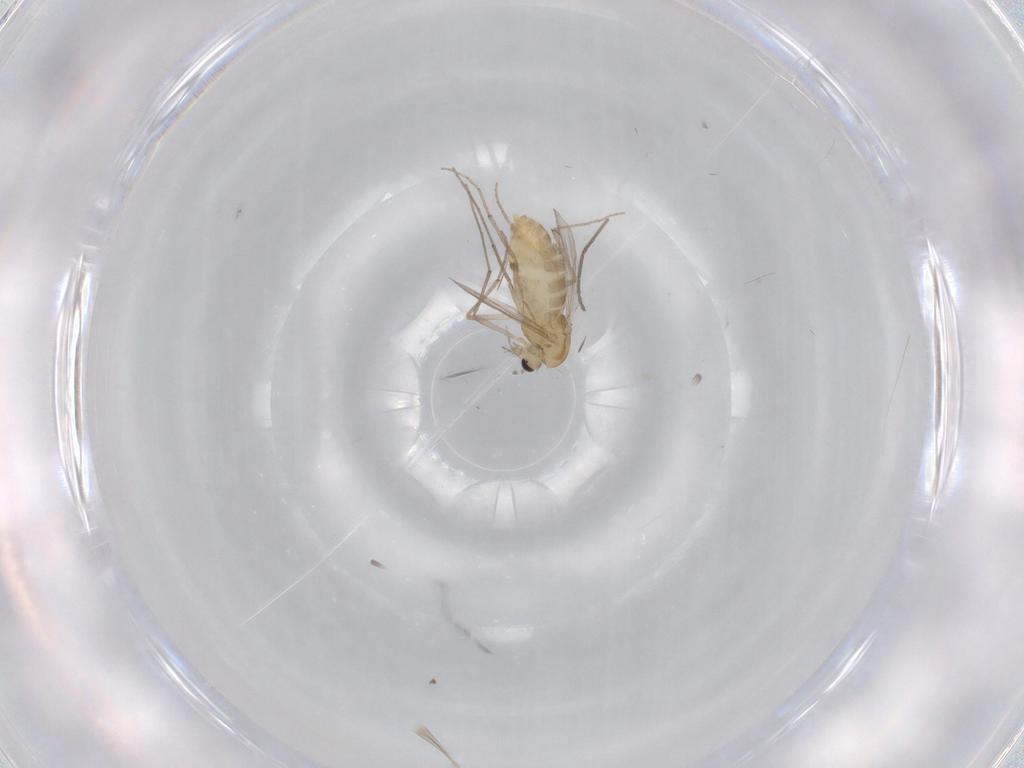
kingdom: Animalia
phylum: Arthropoda
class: Insecta
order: Diptera
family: Chironomidae
